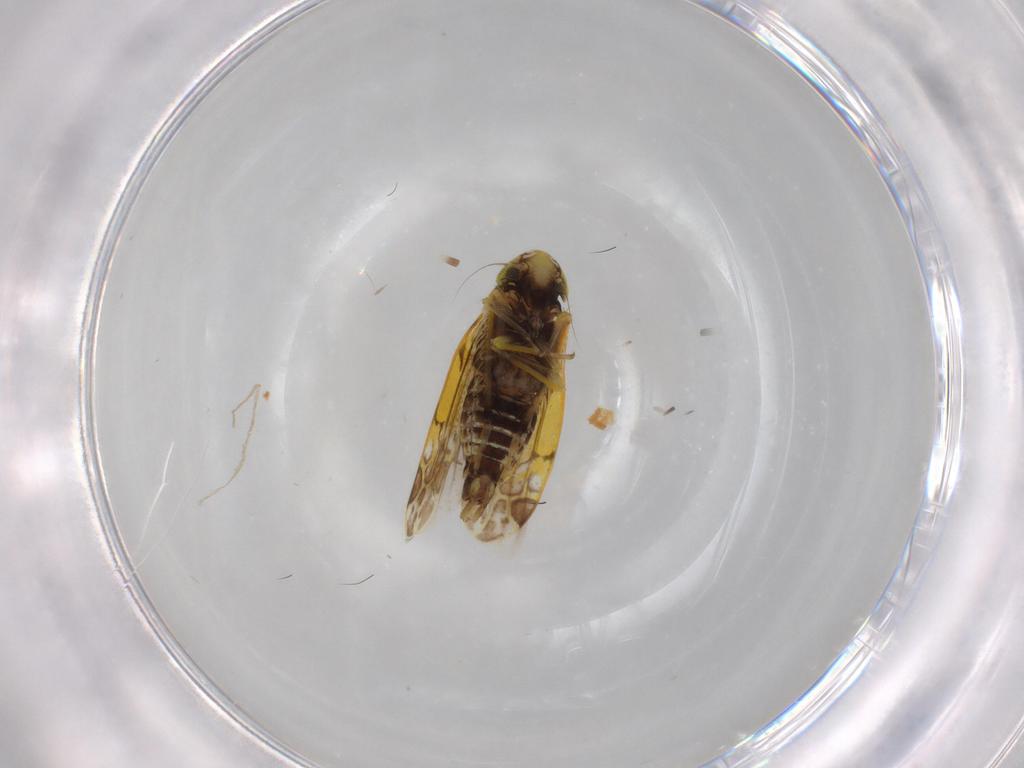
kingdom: Animalia
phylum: Arthropoda
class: Insecta
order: Hemiptera
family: Cicadellidae
